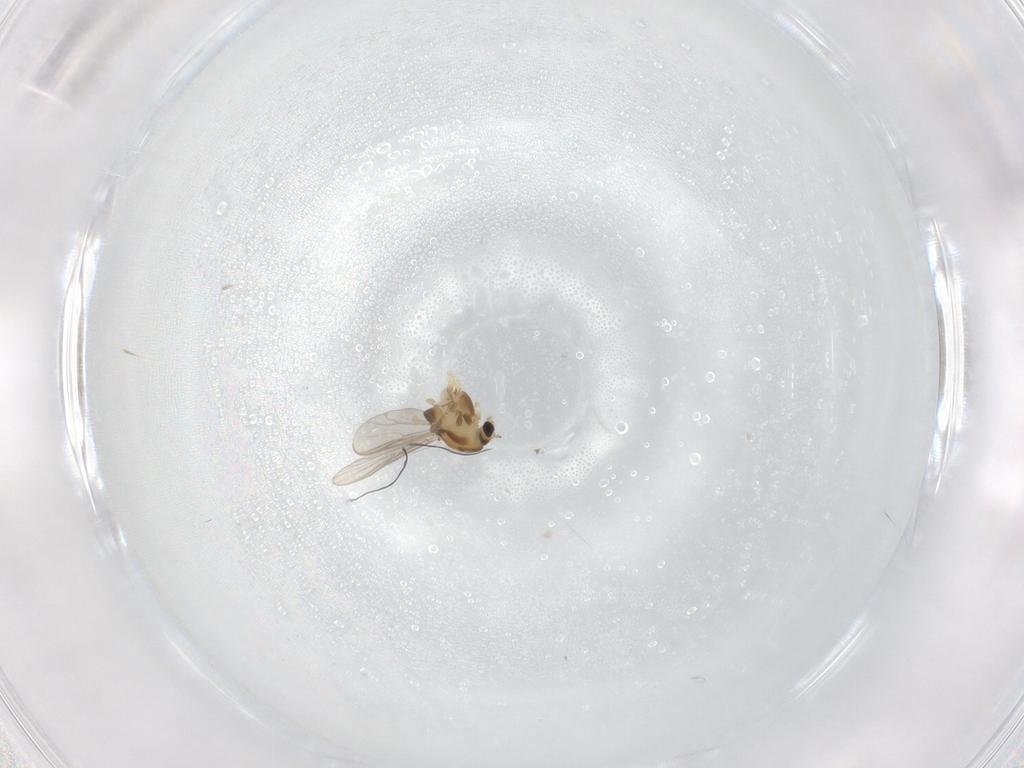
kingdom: Animalia
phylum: Arthropoda
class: Insecta
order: Diptera
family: Chironomidae
